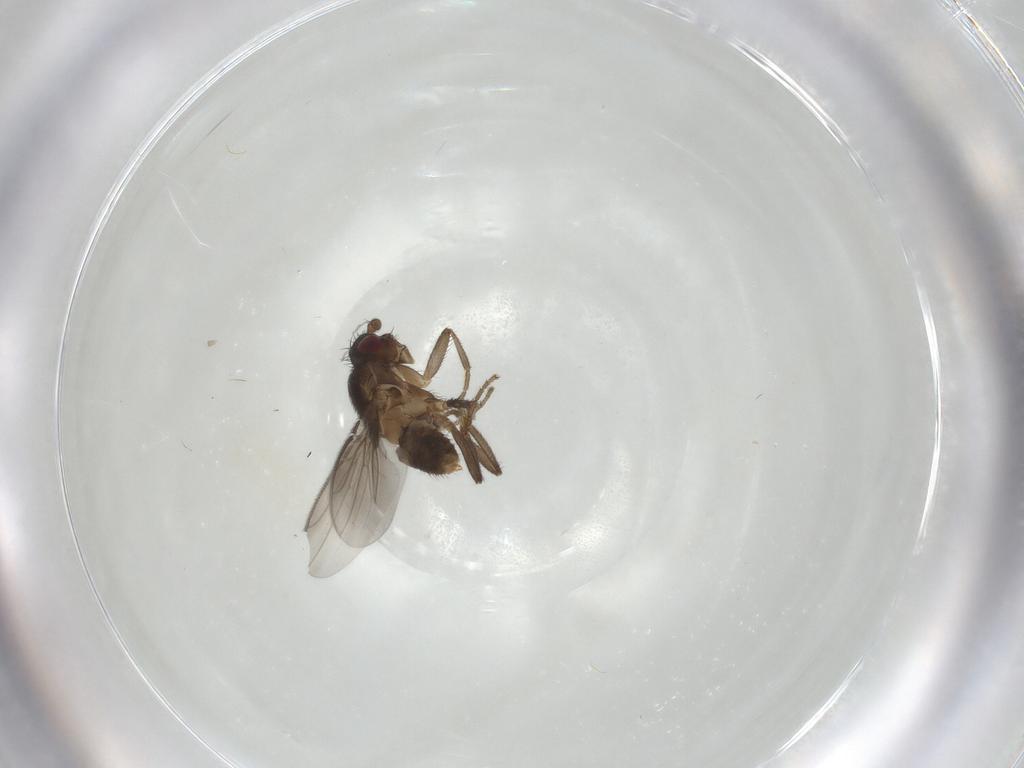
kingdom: Animalia
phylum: Arthropoda
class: Insecta
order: Diptera
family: Sphaeroceridae
